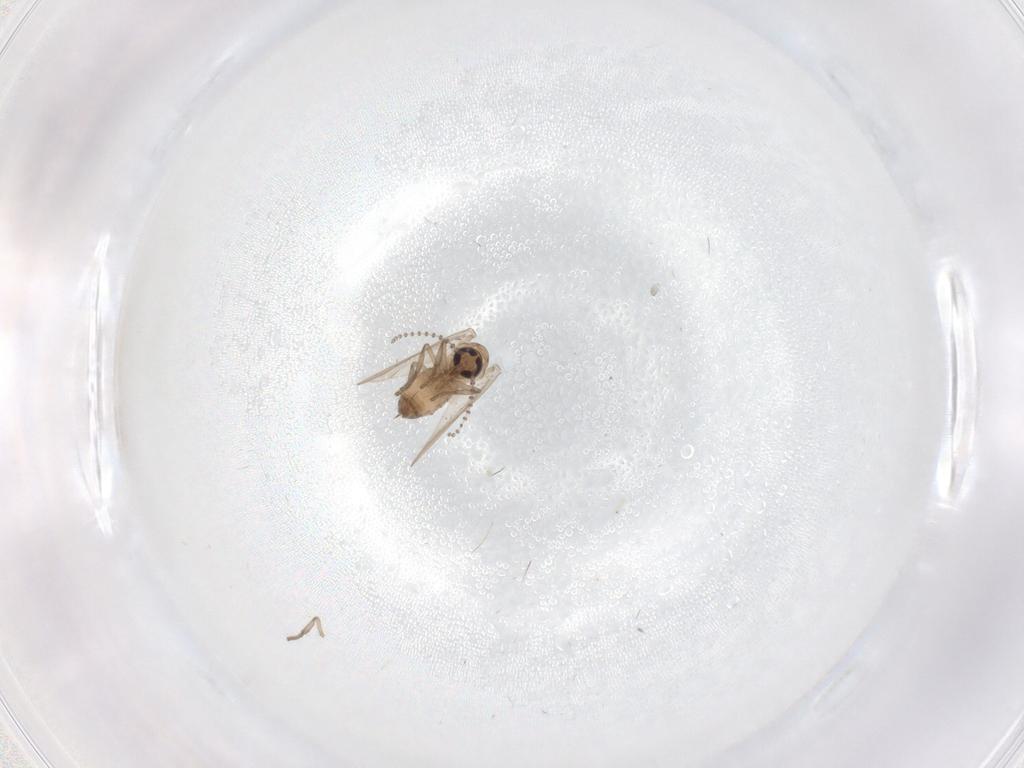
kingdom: Animalia
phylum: Arthropoda
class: Insecta
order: Diptera
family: Psychodidae
